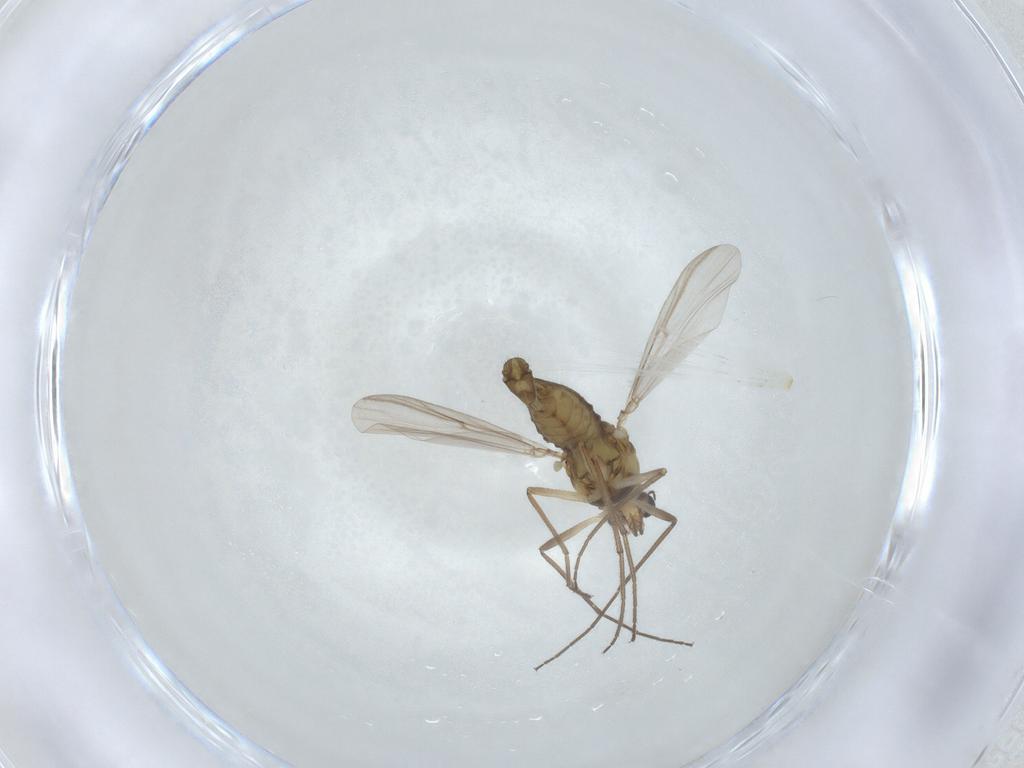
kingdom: Animalia
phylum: Arthropoda
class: Insecta
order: Diptera
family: Chironomidae
